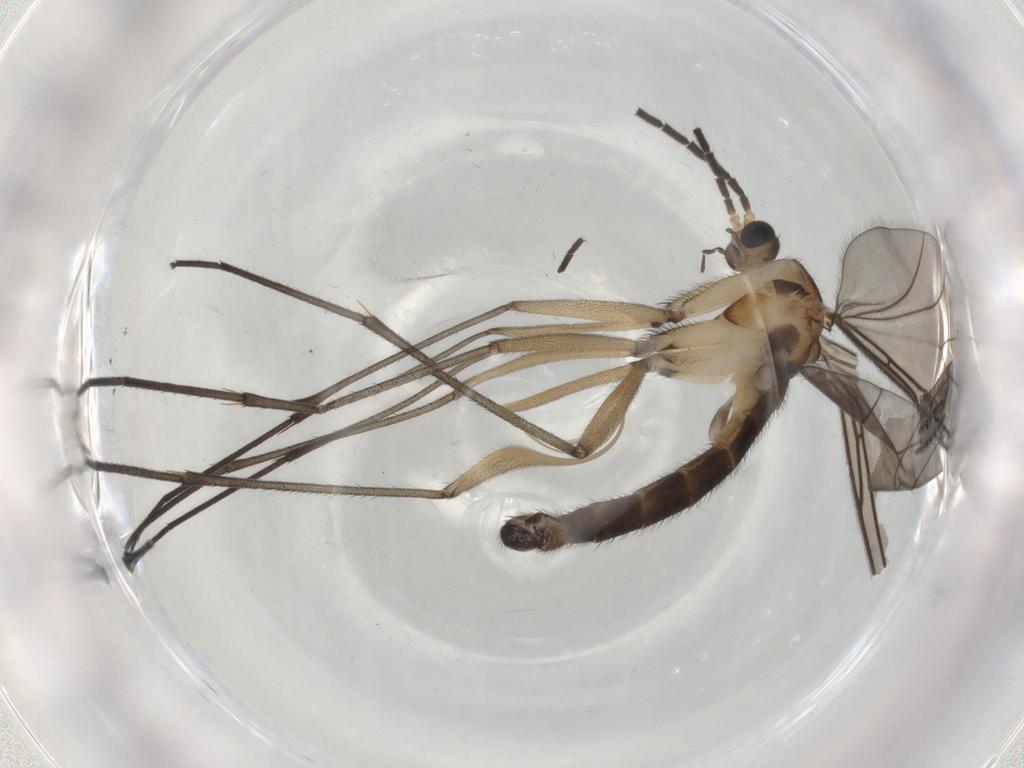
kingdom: Animalia
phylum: Arthropoda
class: Insecta
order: Diptera
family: Sciaridae
